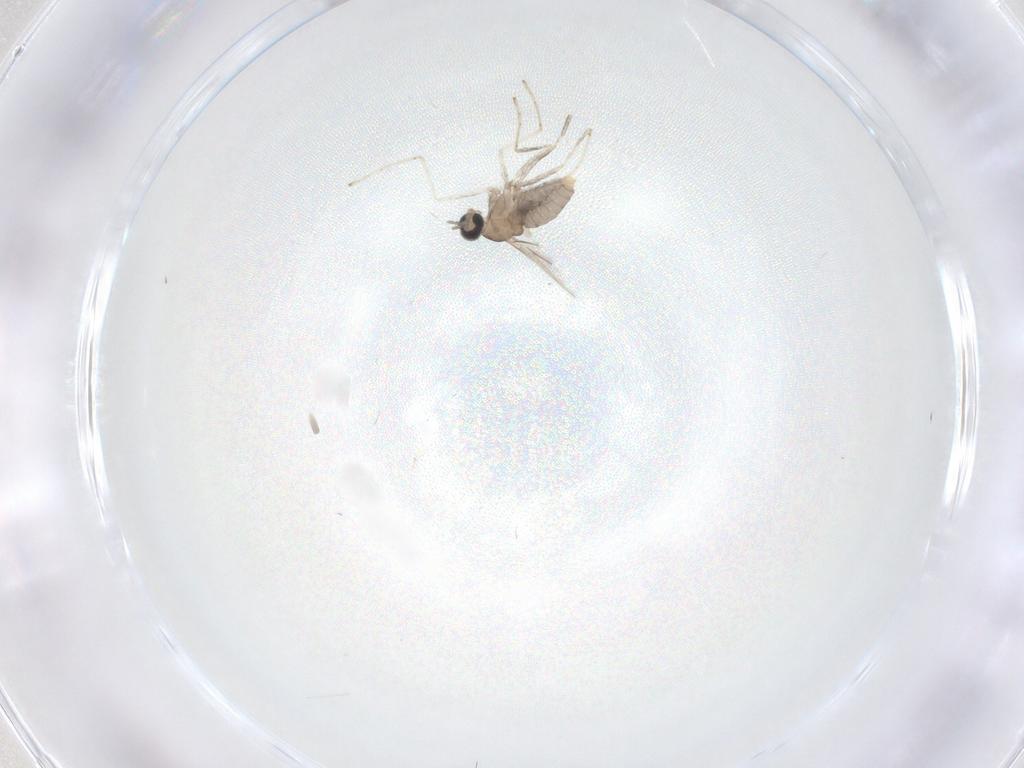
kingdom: Animalia
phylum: Arthropoda
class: Insecta
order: Diptera
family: Cecidomyiidae
